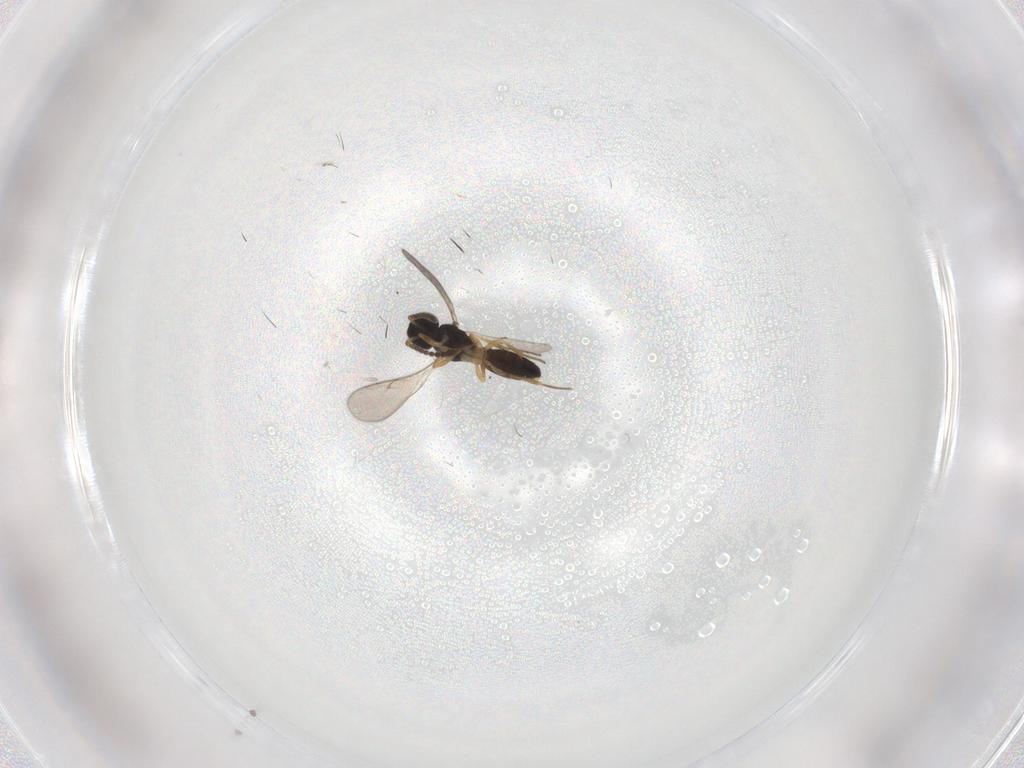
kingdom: Animalia
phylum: Arthropoda
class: Insecta
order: Hymenoptera
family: Scelionidae
